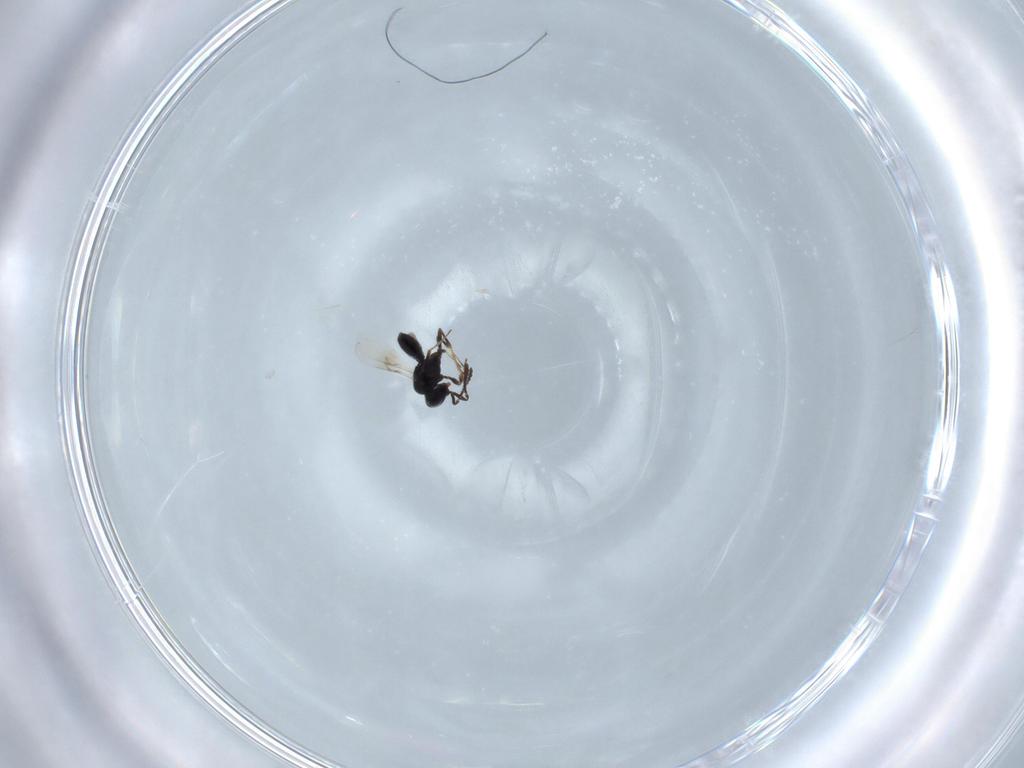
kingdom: Animalia
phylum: Arthropoda
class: Insecta
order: Hymenoptera
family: Scelionidae
